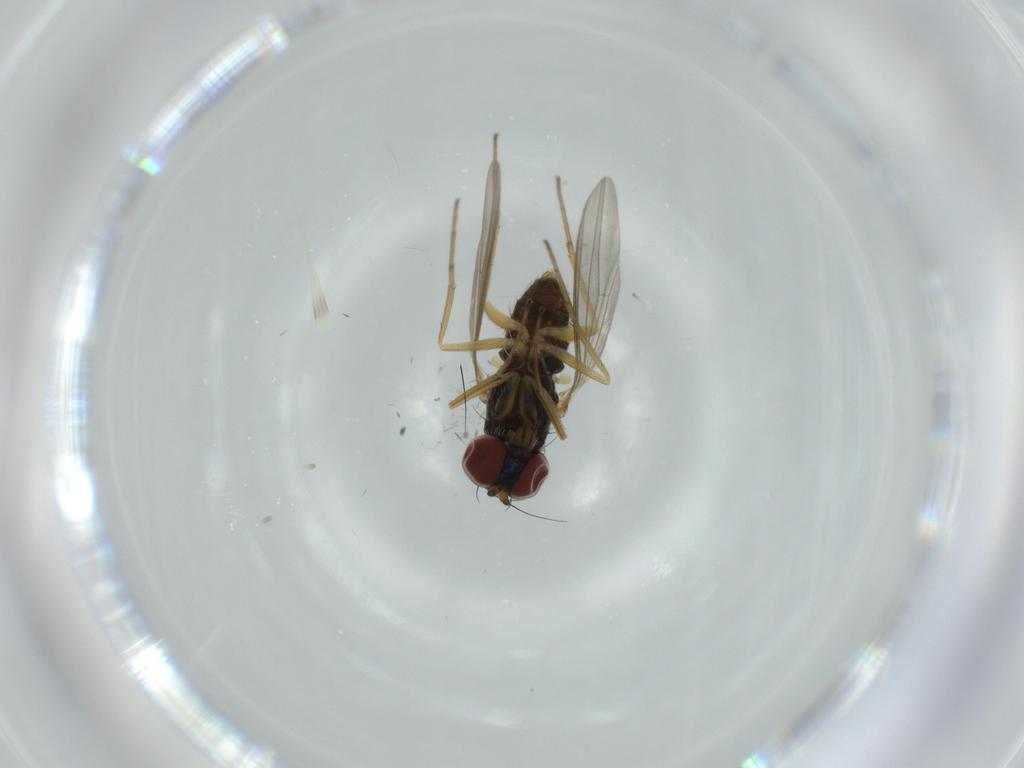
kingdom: Animalia
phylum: Arthropoda
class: Insecta
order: Diptera
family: Dolichopodidae
